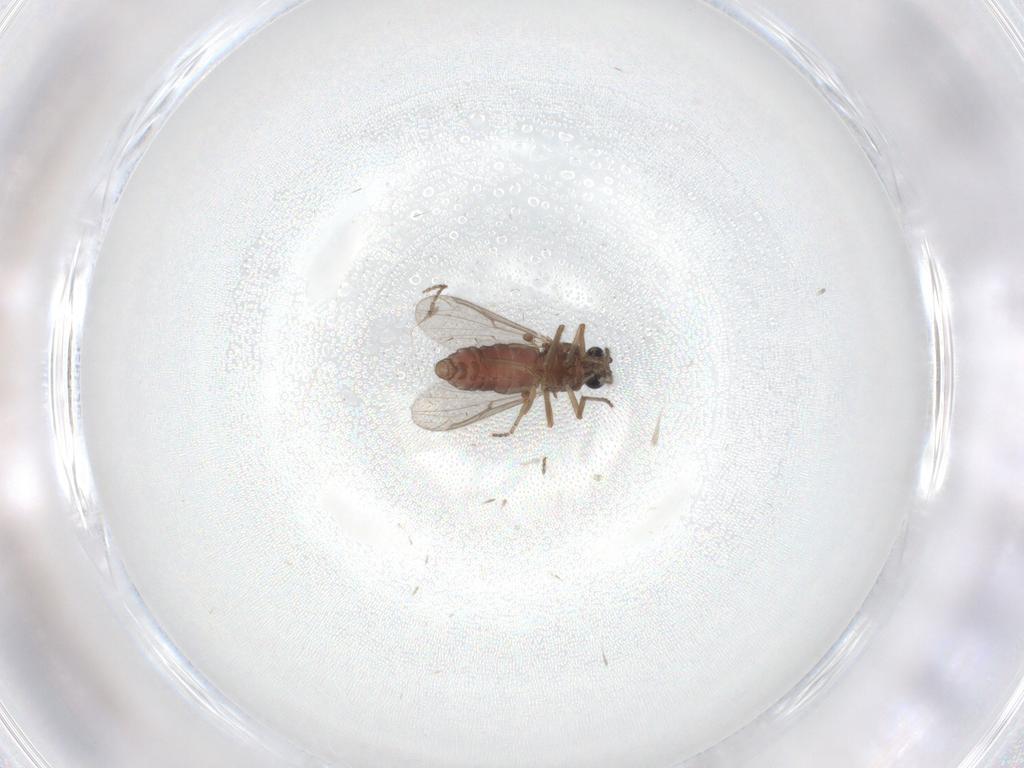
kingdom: Animalia
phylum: Arthropoda
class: Insecta
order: Diptera
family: Ceratopogonidae
